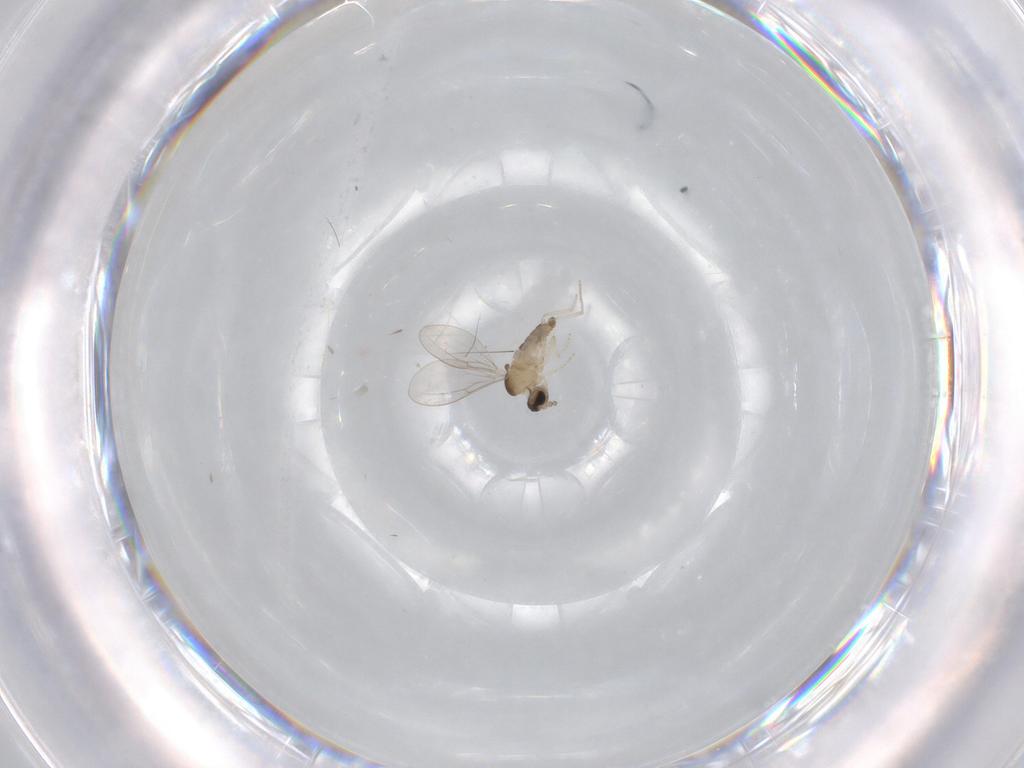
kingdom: Animalia
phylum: Arthropoda
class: Insecta
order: Diptera
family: Cecidomyiidae
